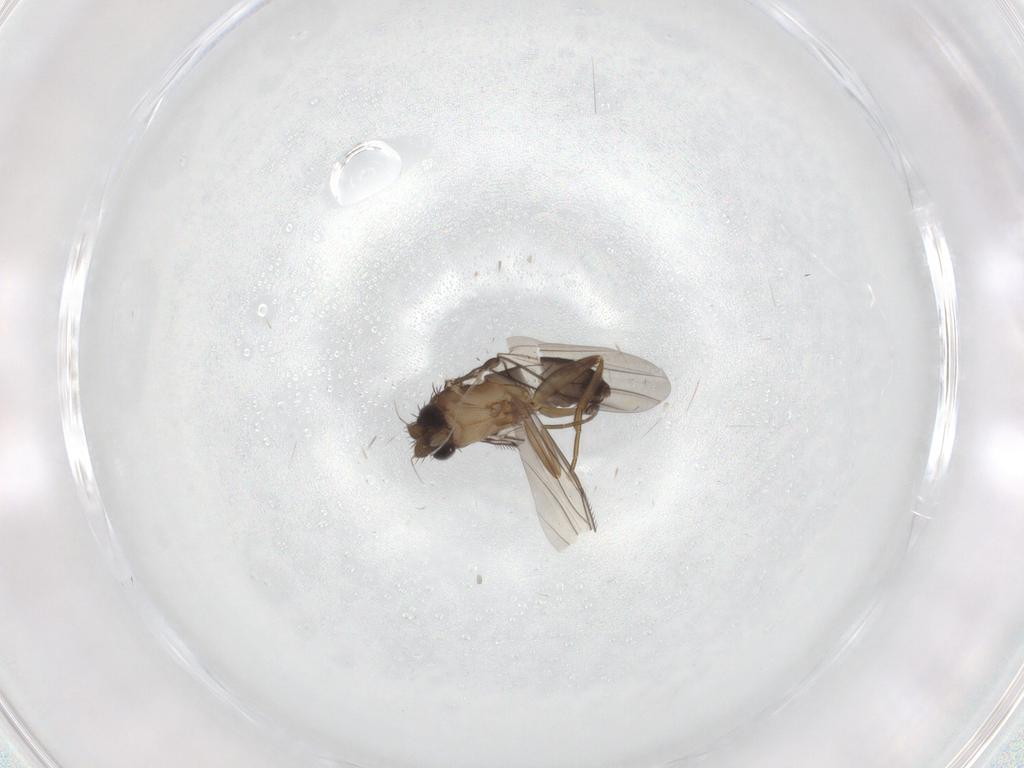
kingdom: Animalia
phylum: Arthropoda
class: Insecta
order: Diptera
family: Phoridae
